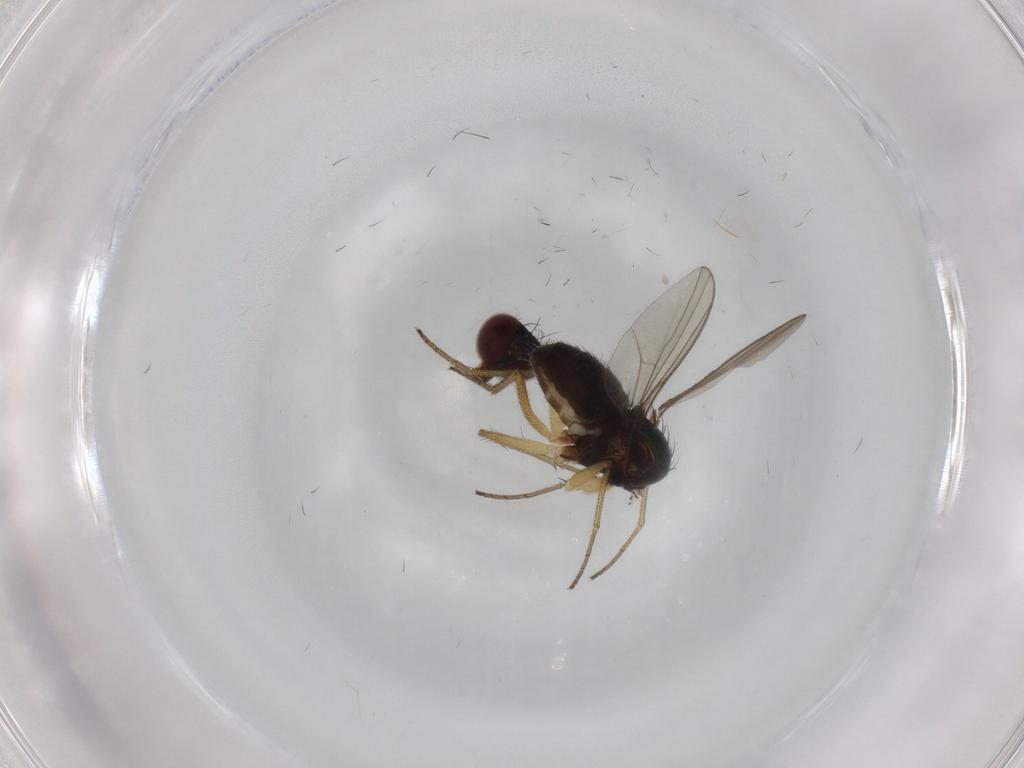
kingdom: Animalia
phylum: Arthropoda
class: Insecta
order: Diptera
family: Dolichopodidae
